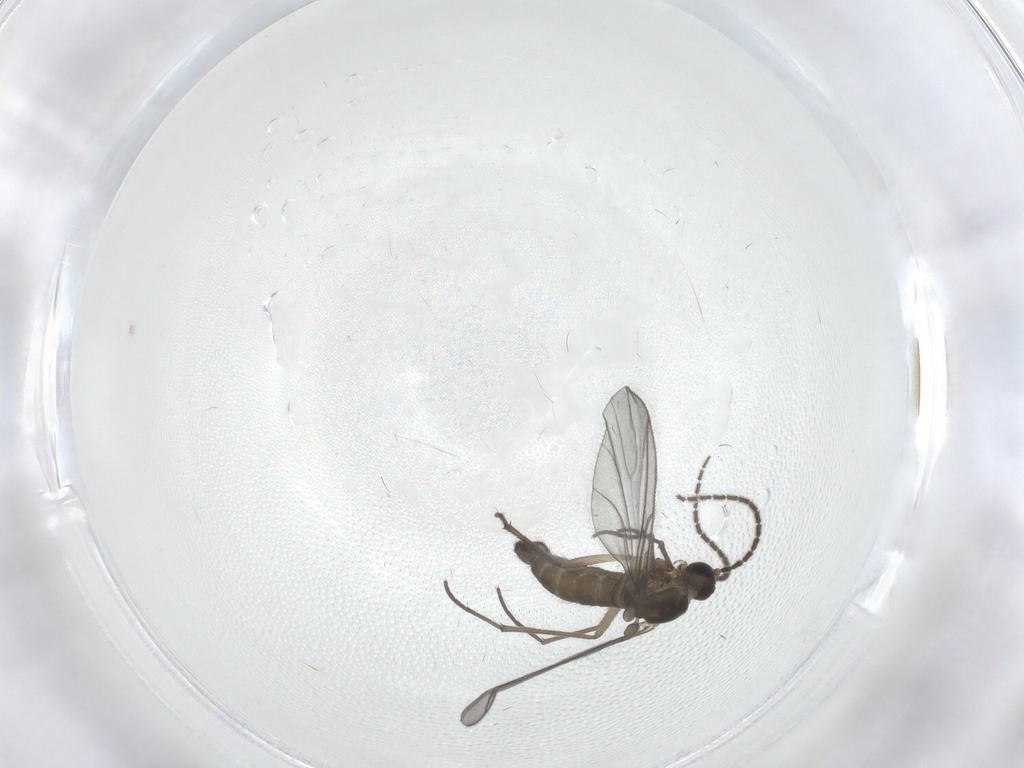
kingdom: Animalia
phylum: Arthropoda
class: Insecta
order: Diptera
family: Sciaridae
